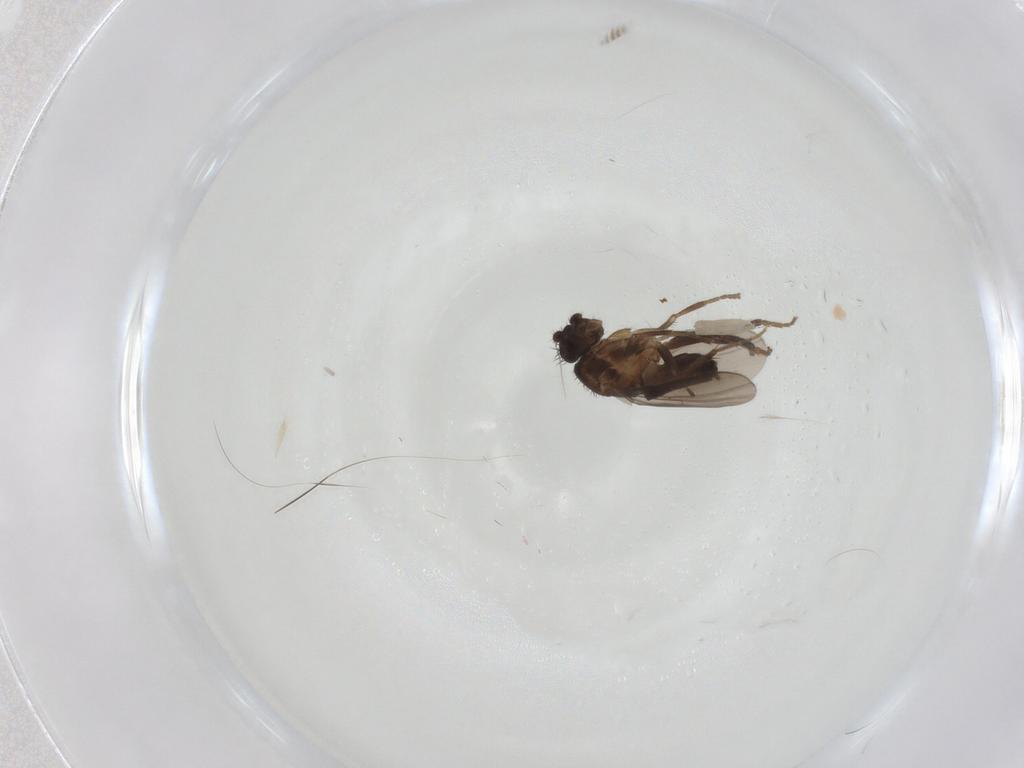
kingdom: Animalia
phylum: Arthropoda
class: Insecta
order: Diptera
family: Sphaeroceridae
